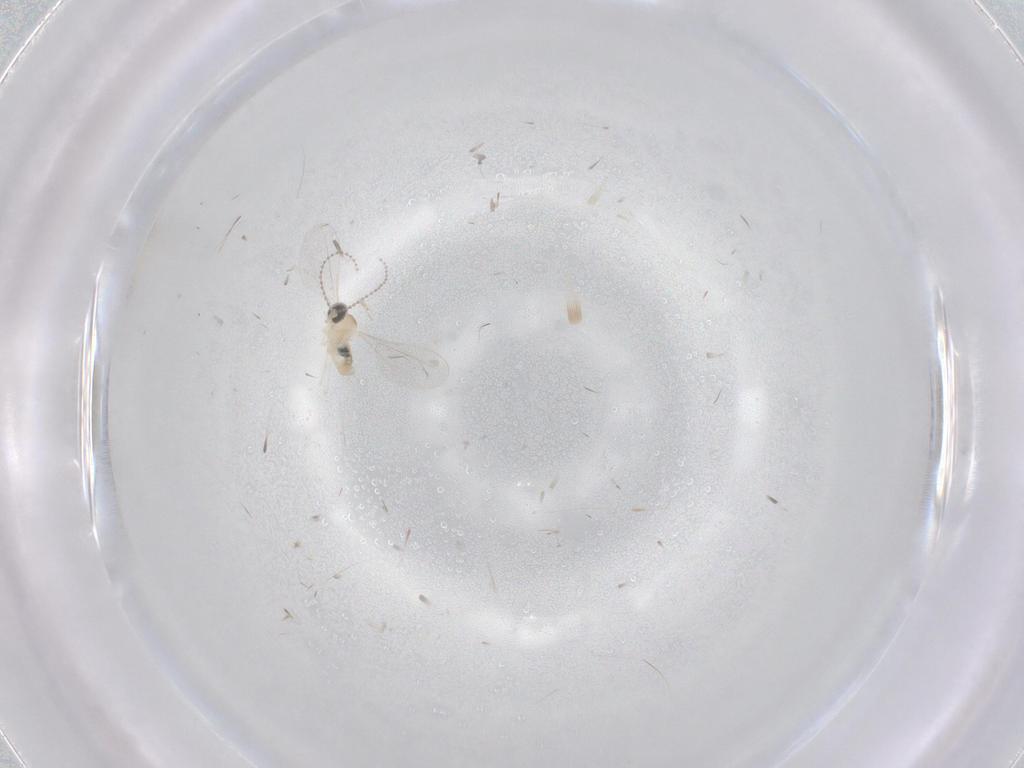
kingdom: Animalia
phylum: Arthropoda
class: Insecta
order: Diptera
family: Cecidomyiidae
